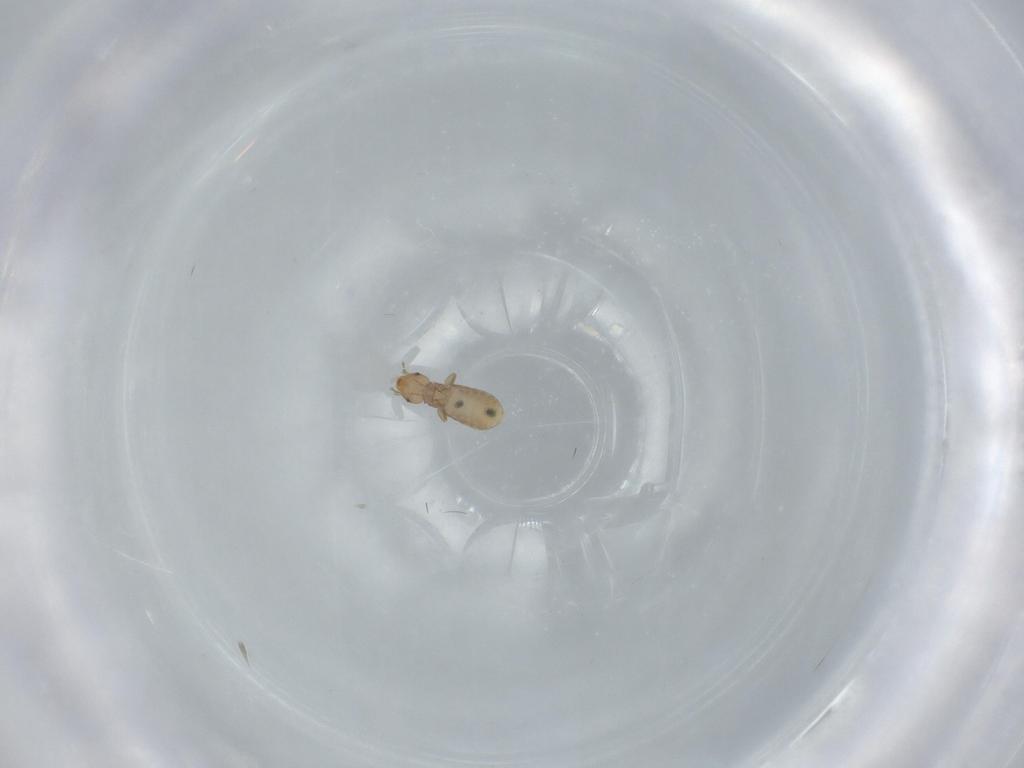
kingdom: Animalia
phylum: Arthropoda
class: Insecta
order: Psocodea
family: Liposcelididae
